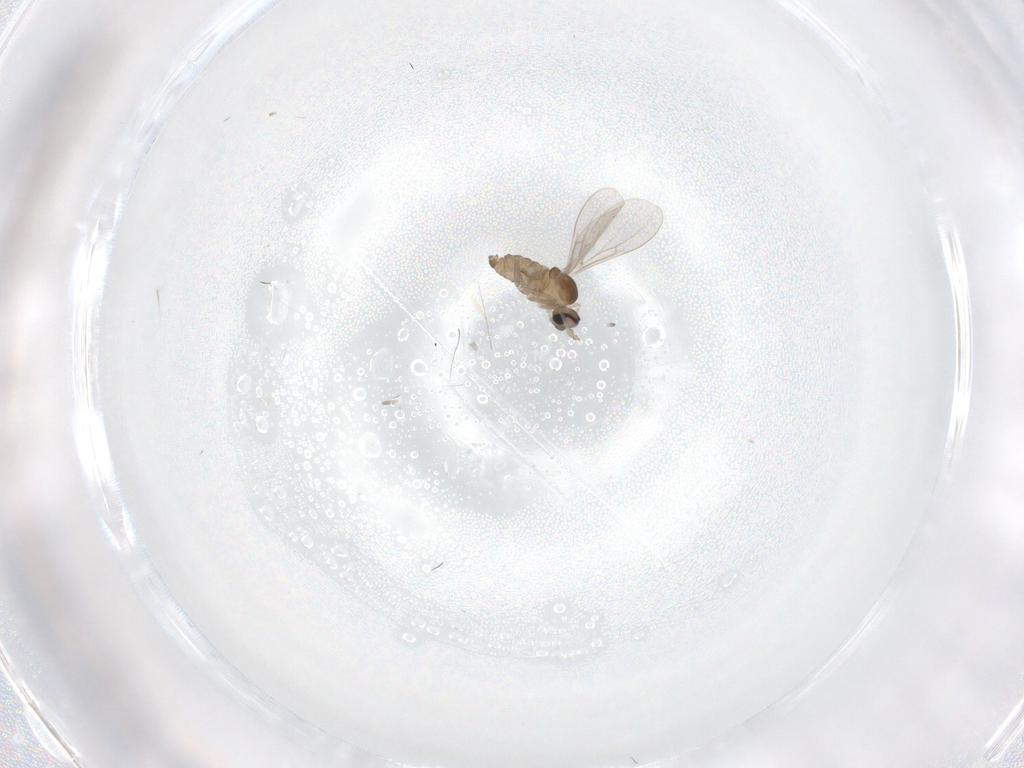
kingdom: Animalia
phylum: Arthropoda
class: Insecta
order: Diptera
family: Cecidomyiidae
